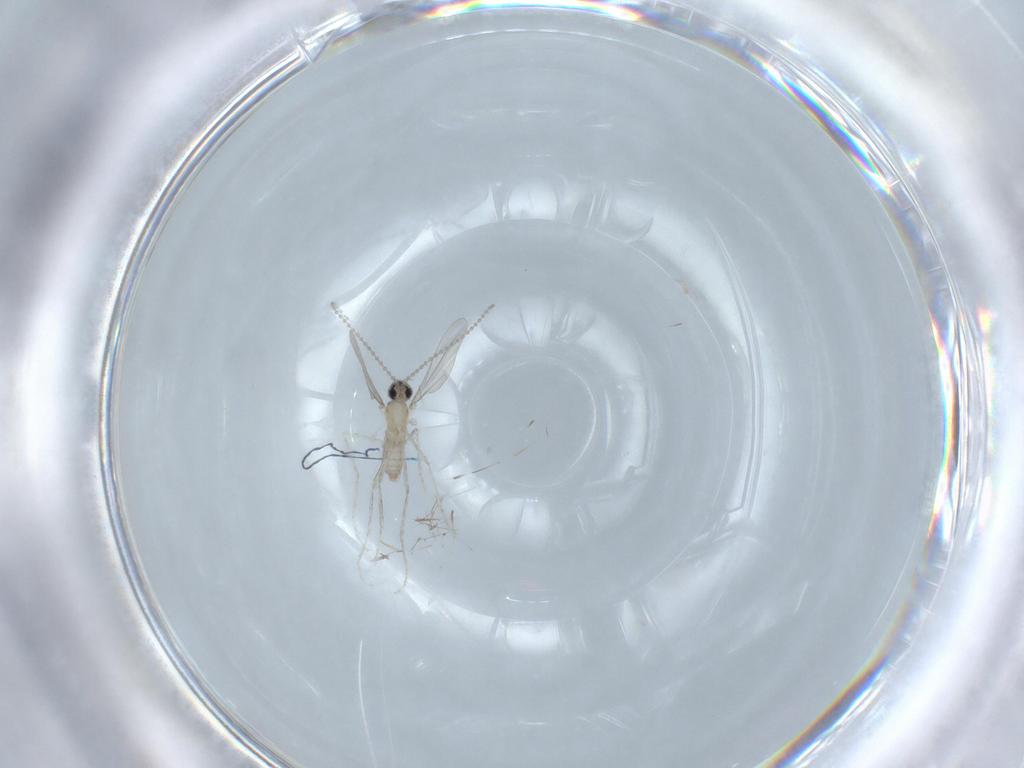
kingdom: Animalia
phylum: Arthropoda
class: Insecta
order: Diptera
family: Cecidomyiidae
